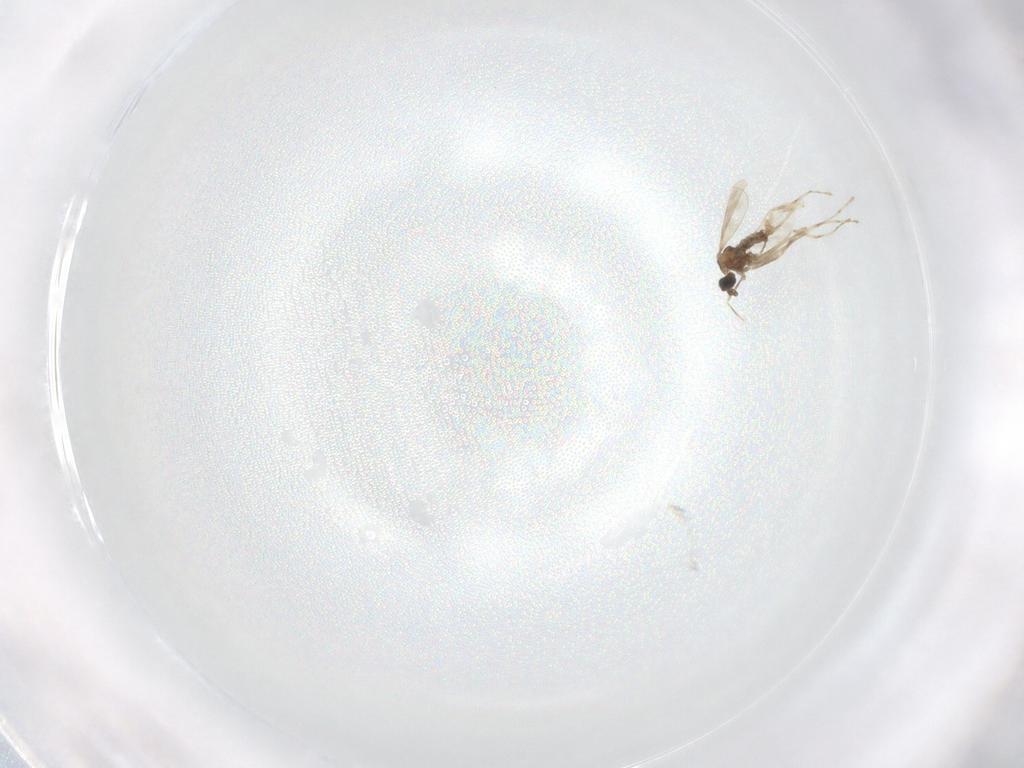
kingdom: Animalia
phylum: Arthropoda
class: Insecta
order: Diptera
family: Cecidomyiidae
